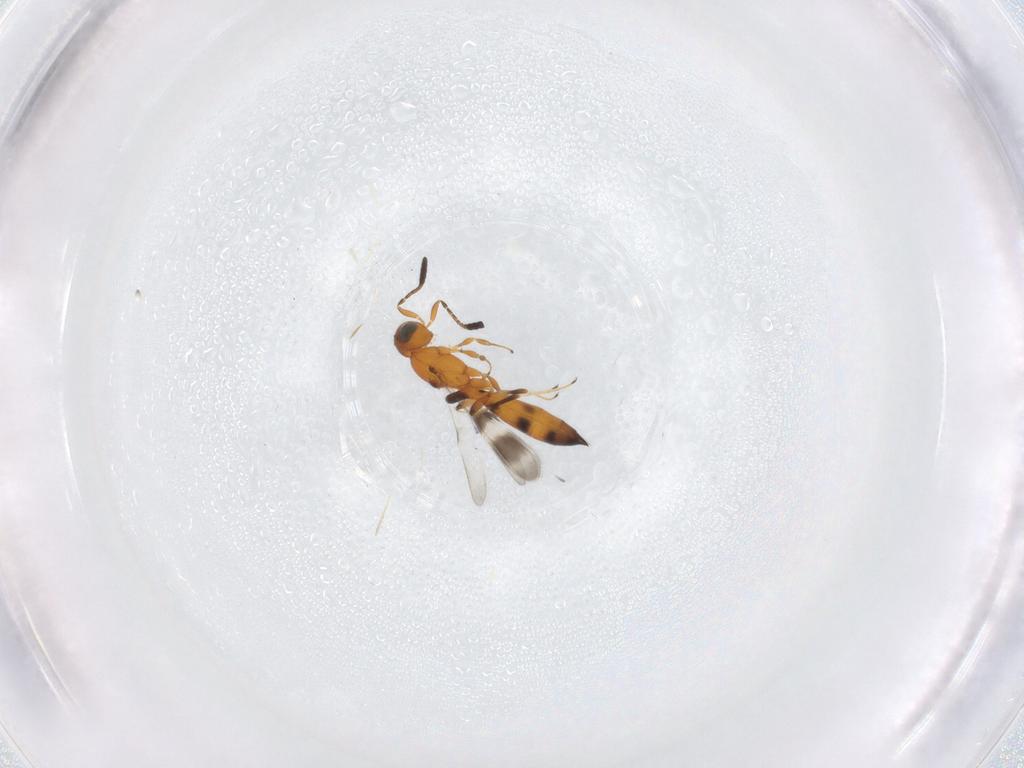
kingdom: Animalia
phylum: Arthropoda
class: Insecta
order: Hymenoptera
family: Scelionidae
